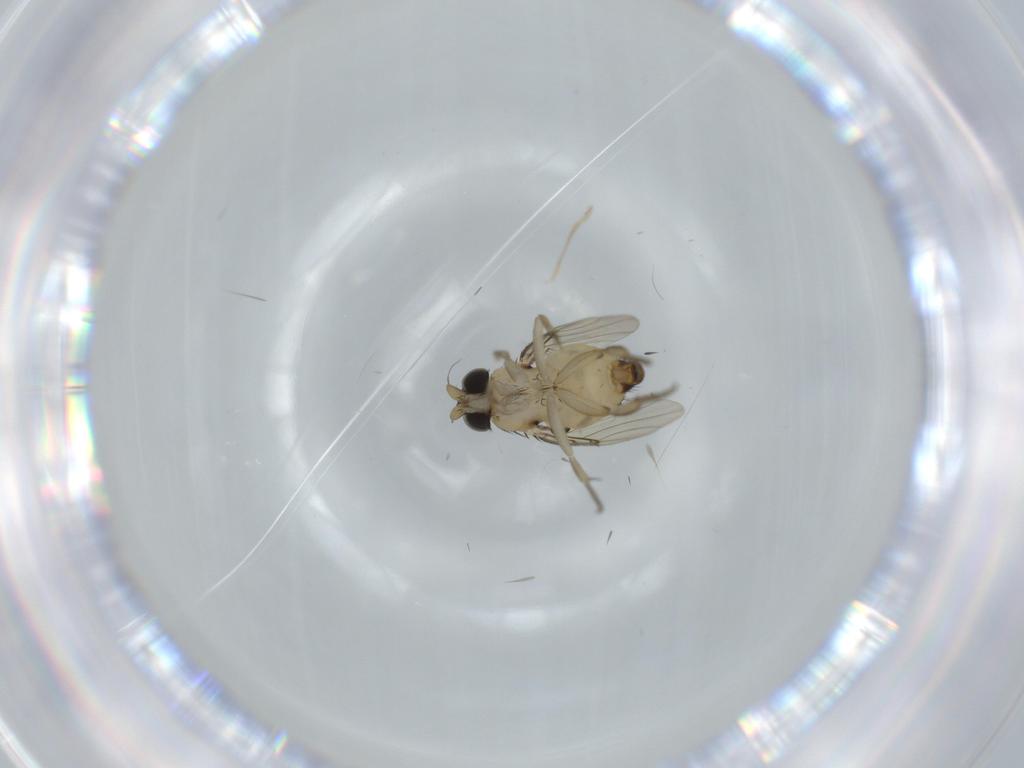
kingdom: Animalia
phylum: Arthropoda
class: Insecta
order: Diptera
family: Phoridae
